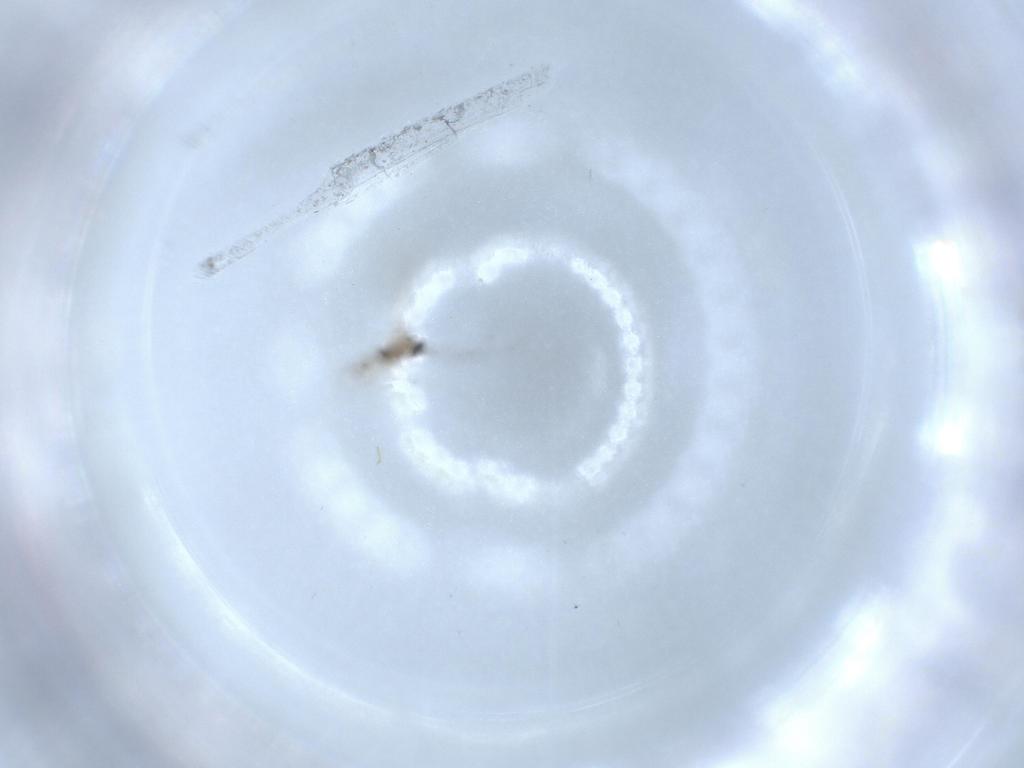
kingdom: Animalia
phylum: Arthropoda
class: Insecta
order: Diptera
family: Cecidomyiidae
